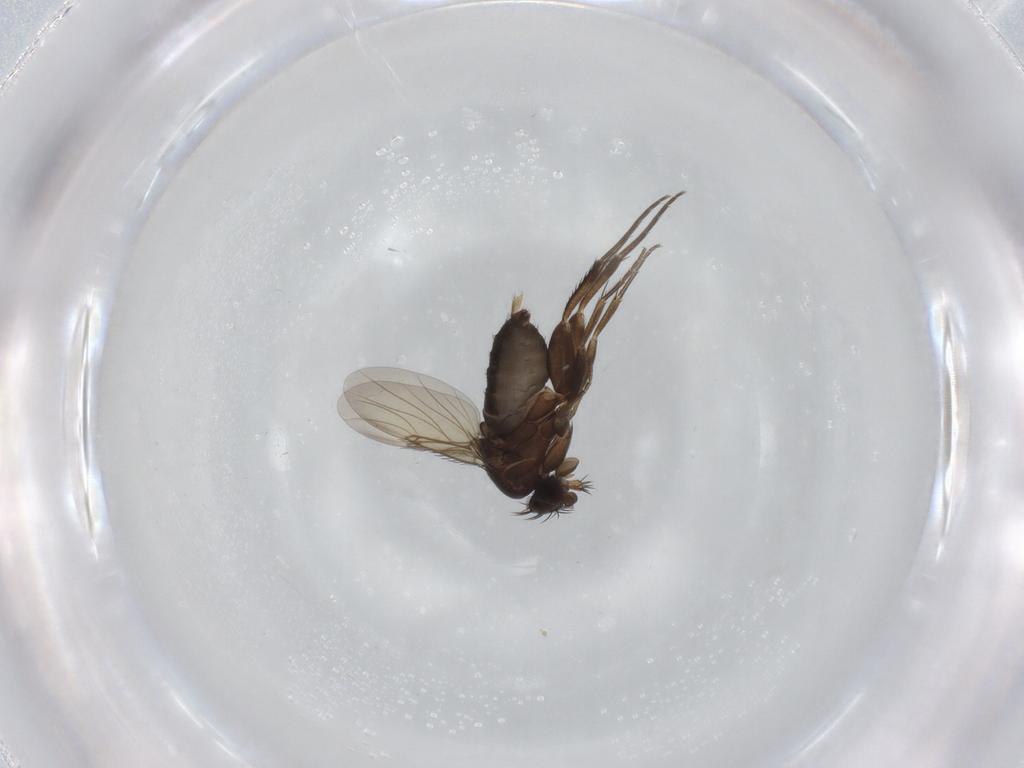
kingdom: Animalia
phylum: Arthropoda
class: Insecta
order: Diptera
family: Phoridae
